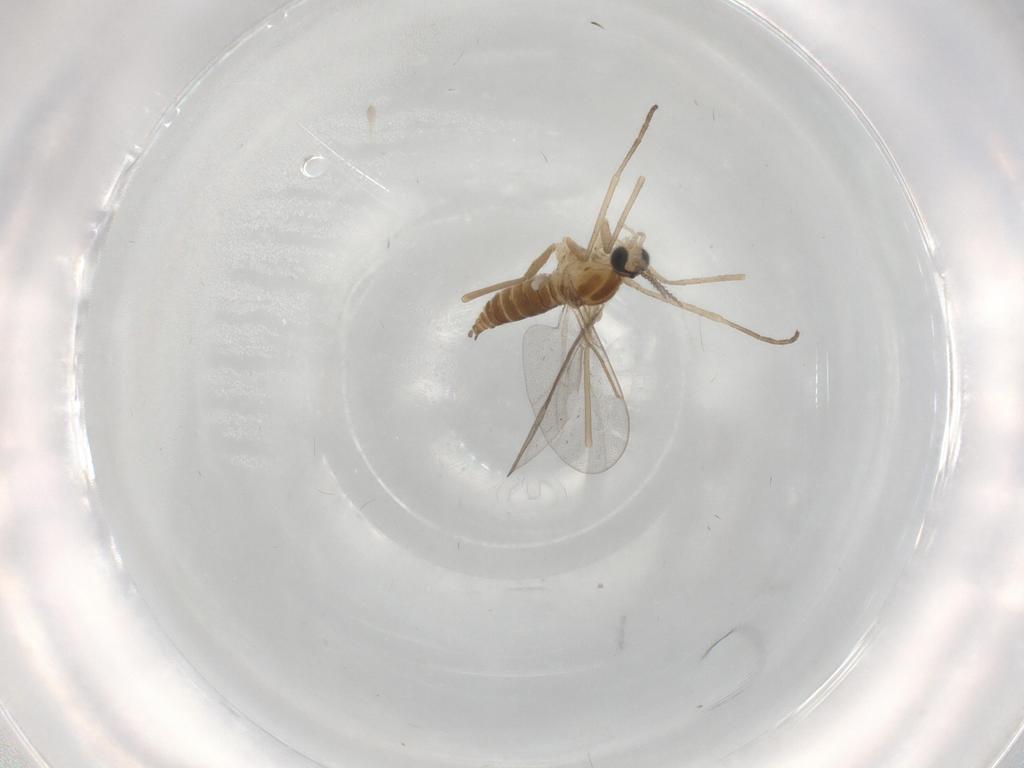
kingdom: Animalia
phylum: Arthropoda
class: Insecta
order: Diptera
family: Cecidomyiidae
